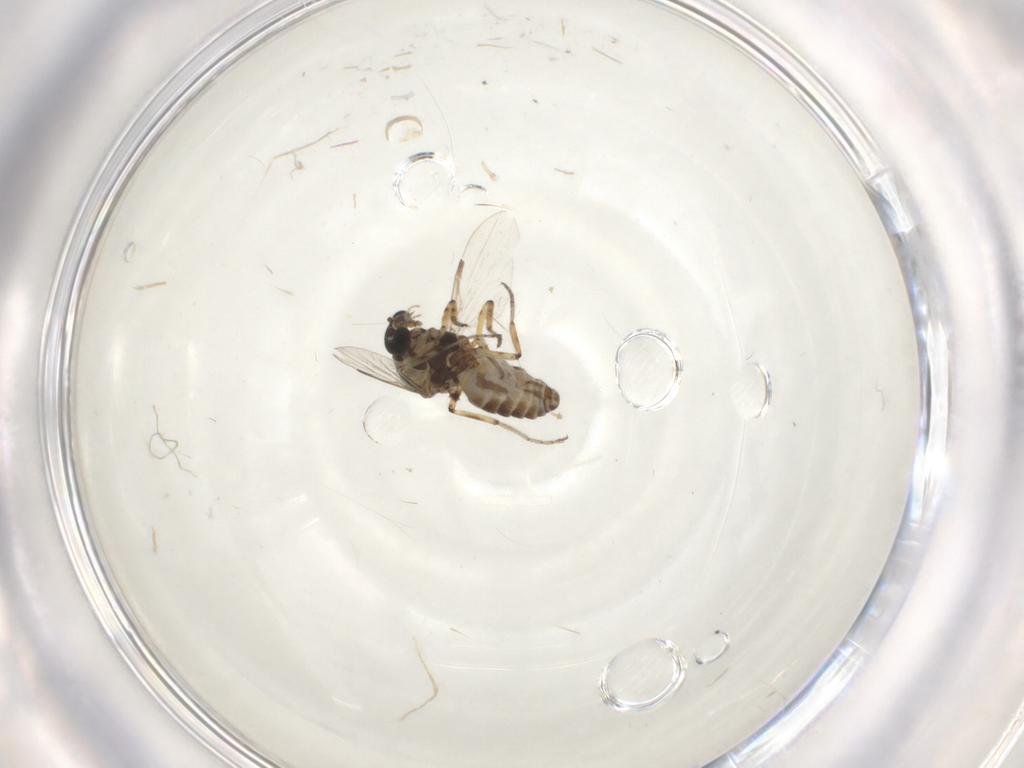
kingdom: Animalia
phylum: Arthropoda
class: Insecta
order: Diptera
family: Ceratopogonidae
